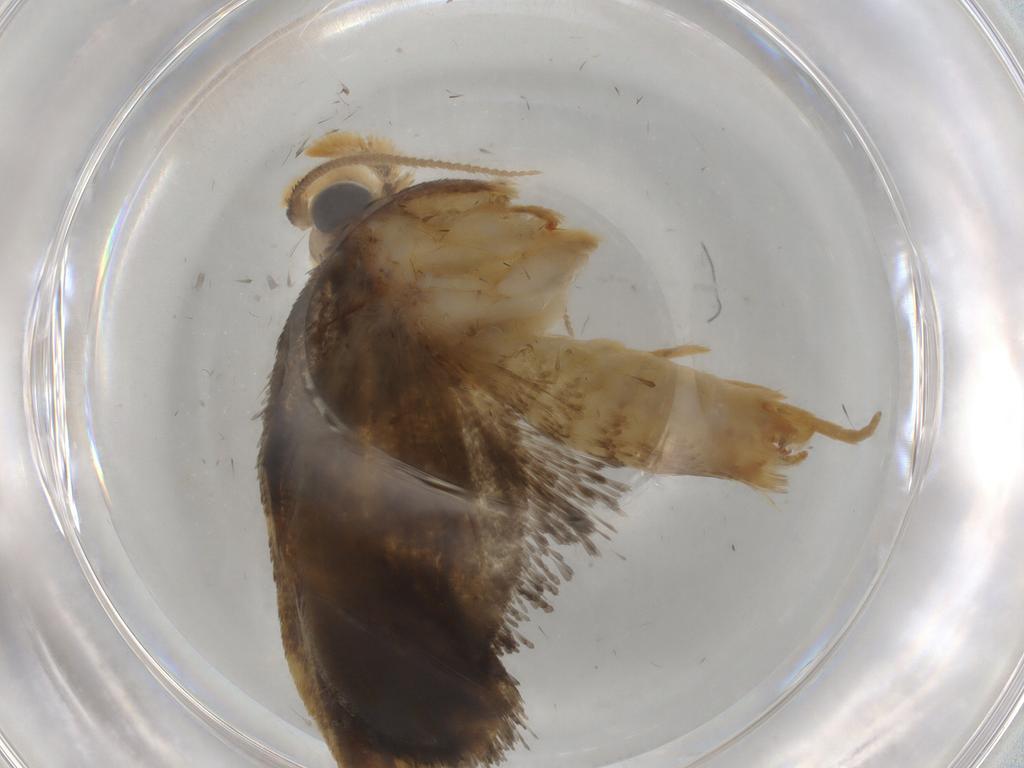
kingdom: Animalia
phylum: Arthropoda
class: Insecta
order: Lepidoptera
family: Psychidae
